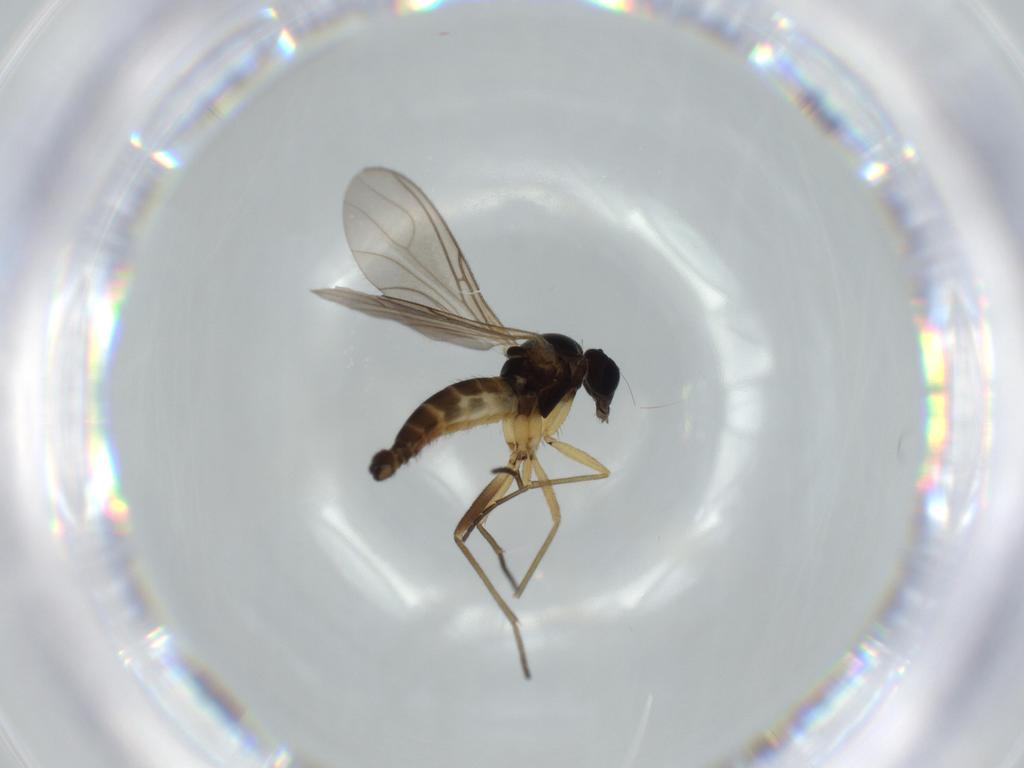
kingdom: Animalia
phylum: Arthropoda
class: Insecta
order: Diptera
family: Sciaridae
